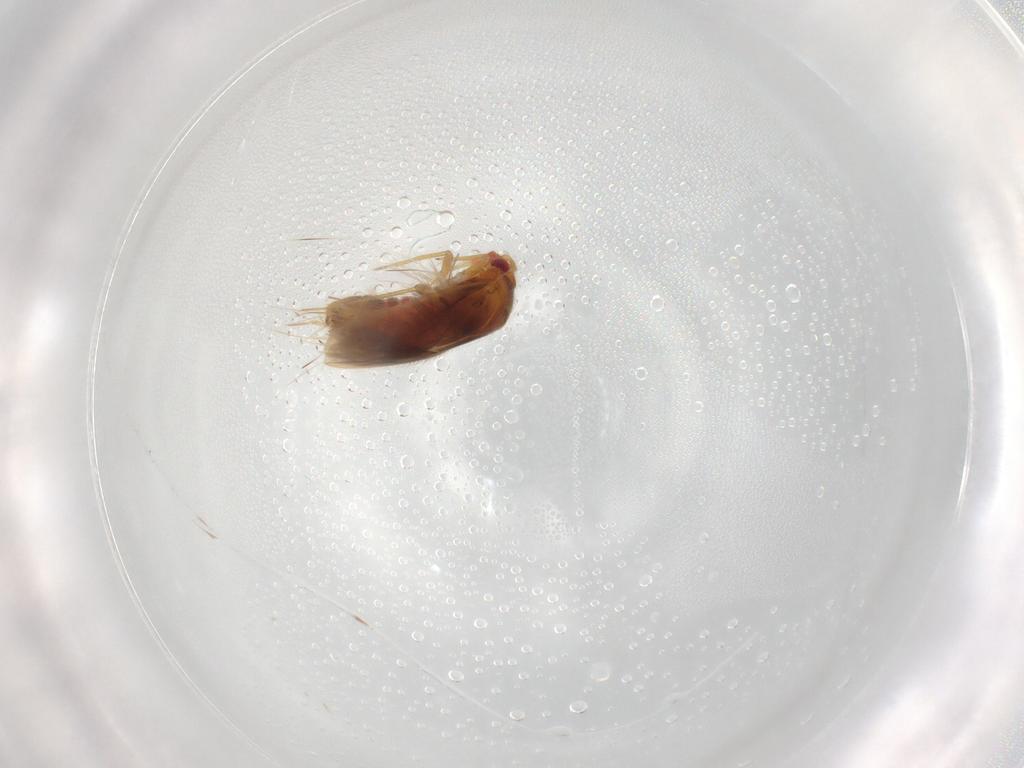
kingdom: Animalia
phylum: Arthropoda
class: Insecta
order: Hemiptera
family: Ceratocombidae
